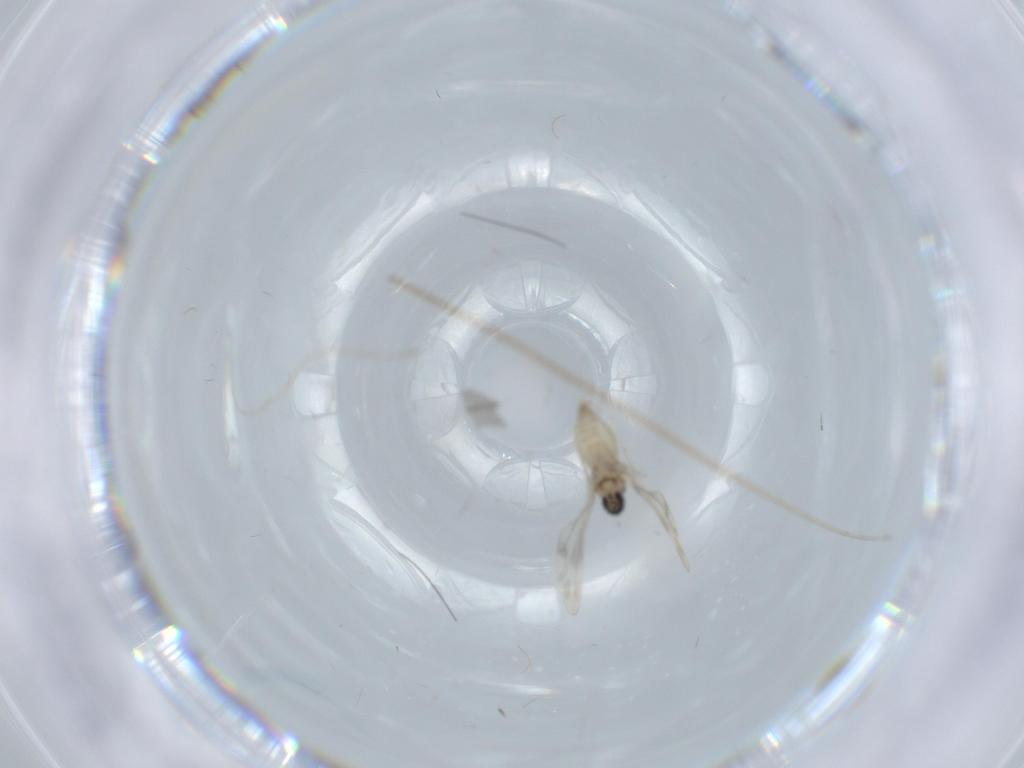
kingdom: Animalia
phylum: Arthropoda
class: Insecta
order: Diptera
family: Cecidomyiidae
